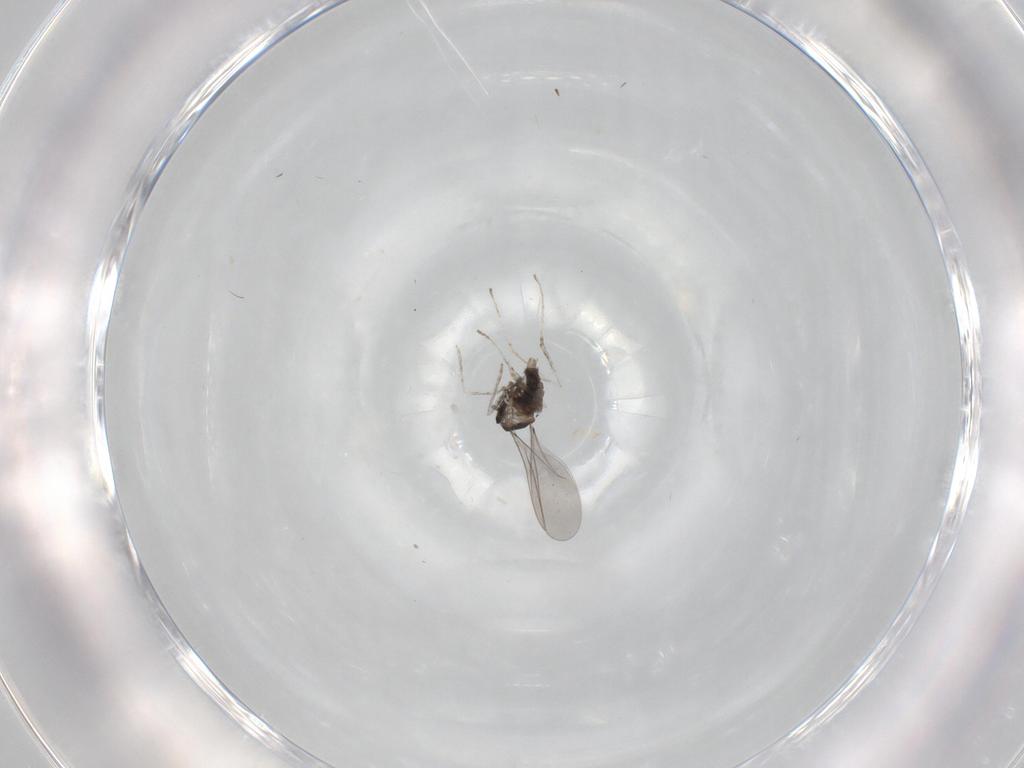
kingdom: Animalia
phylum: Arthropoda
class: Insecta
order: Diptera
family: Cecidomyiidae
